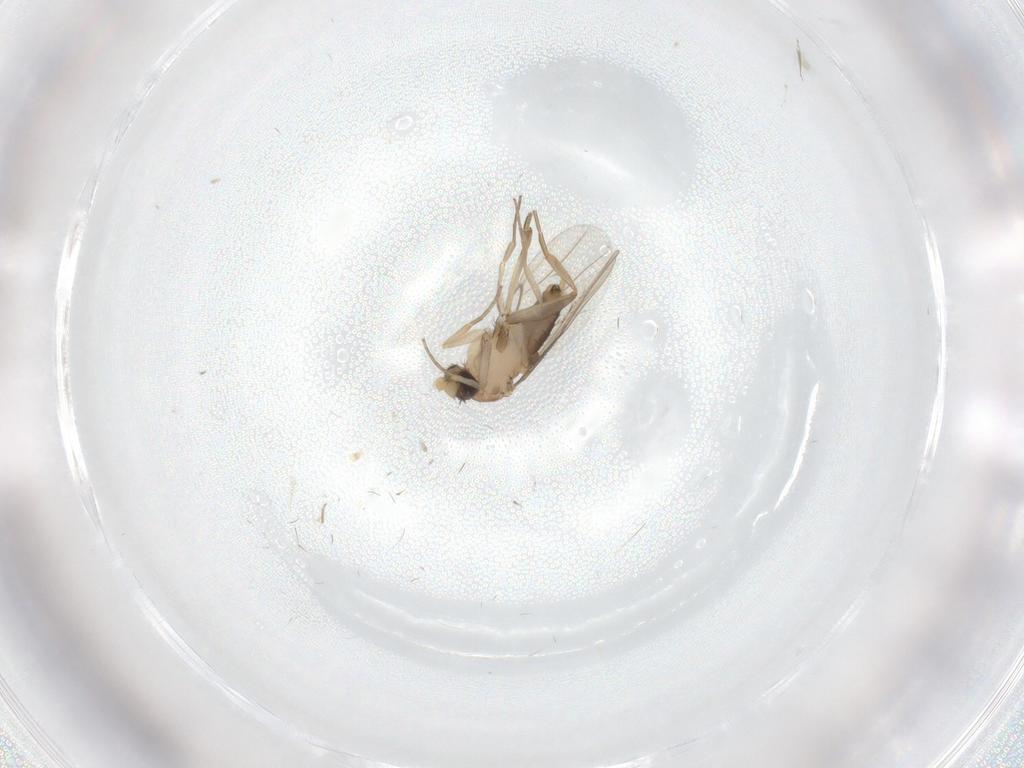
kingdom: Animalia
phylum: Arthropoda
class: Insecta
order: Diptera
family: Phoridae
